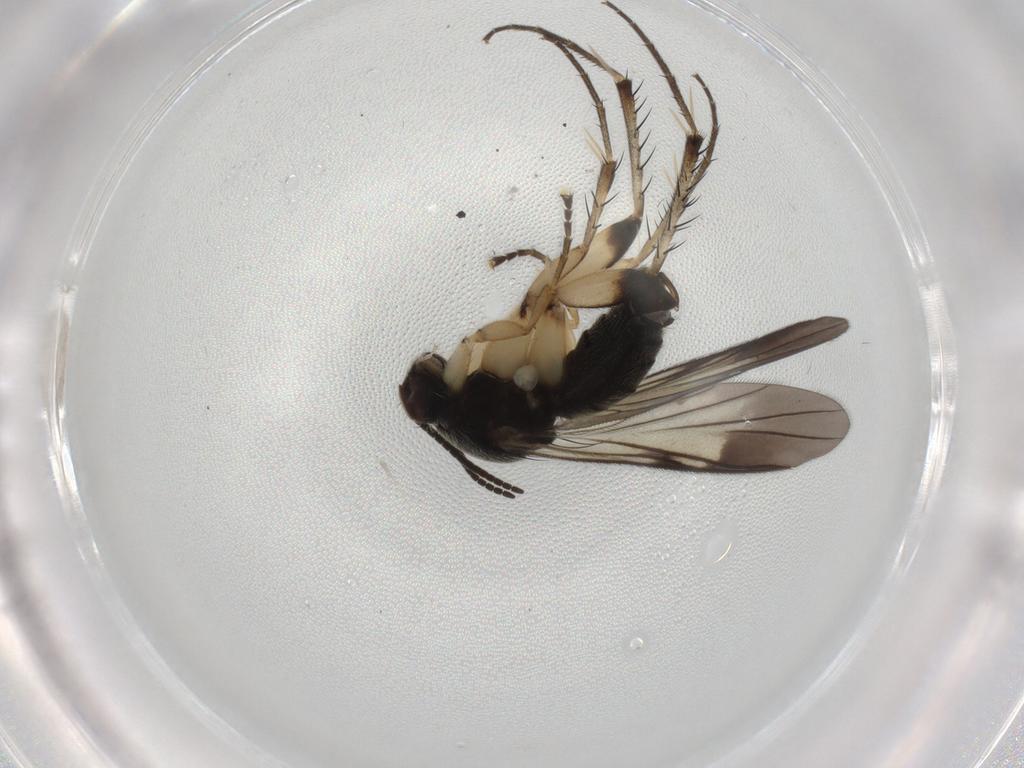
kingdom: Animalia
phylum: Arthropoda
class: Insecta
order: Diptera
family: Mycetophilidae
